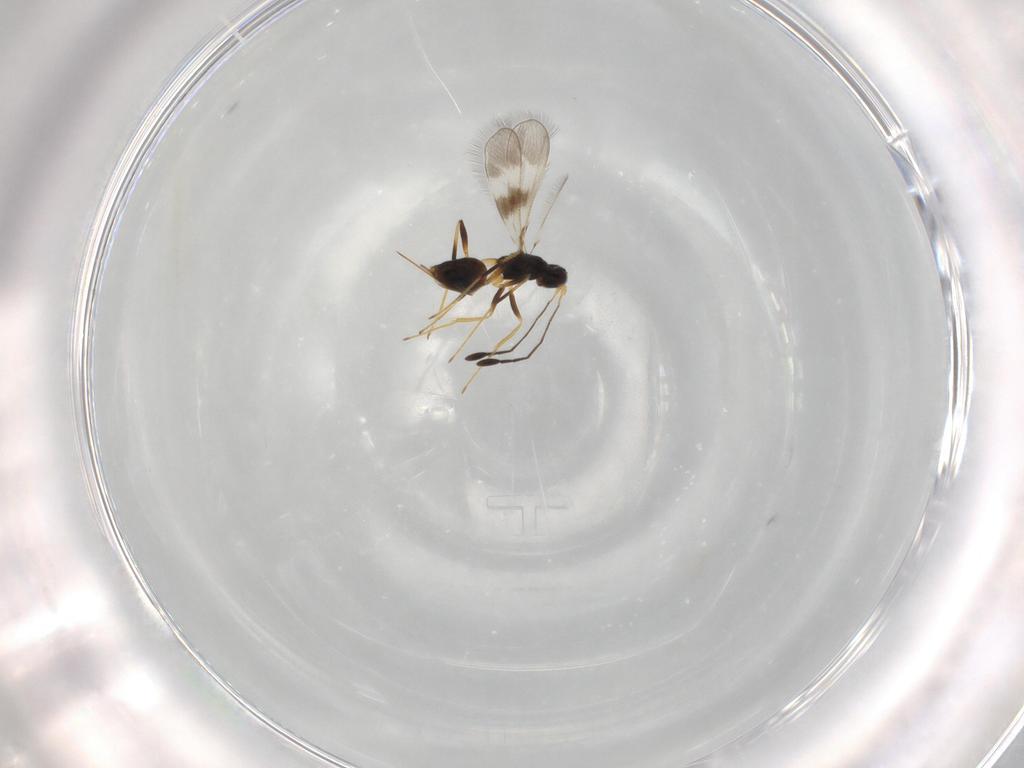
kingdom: Animalia
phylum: Arthropoda
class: Insecta
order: Hymenoptera
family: Mymaridae
